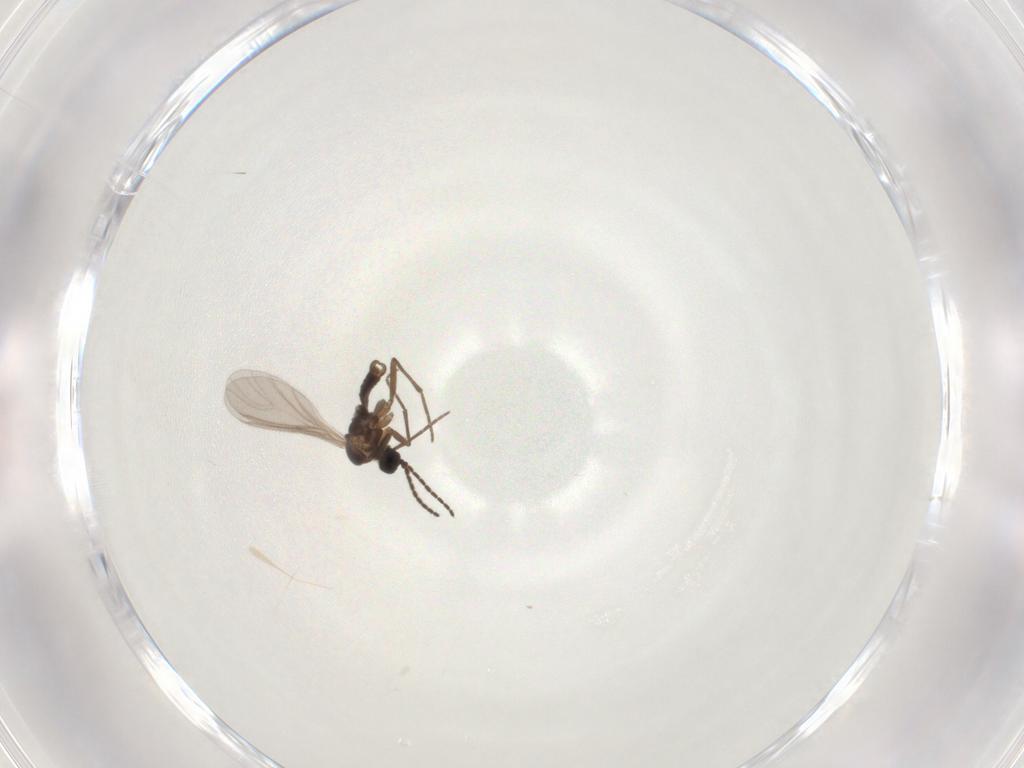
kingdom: Animalia
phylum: Arthropoda
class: Insecta
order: Diptera
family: Sciaridae
